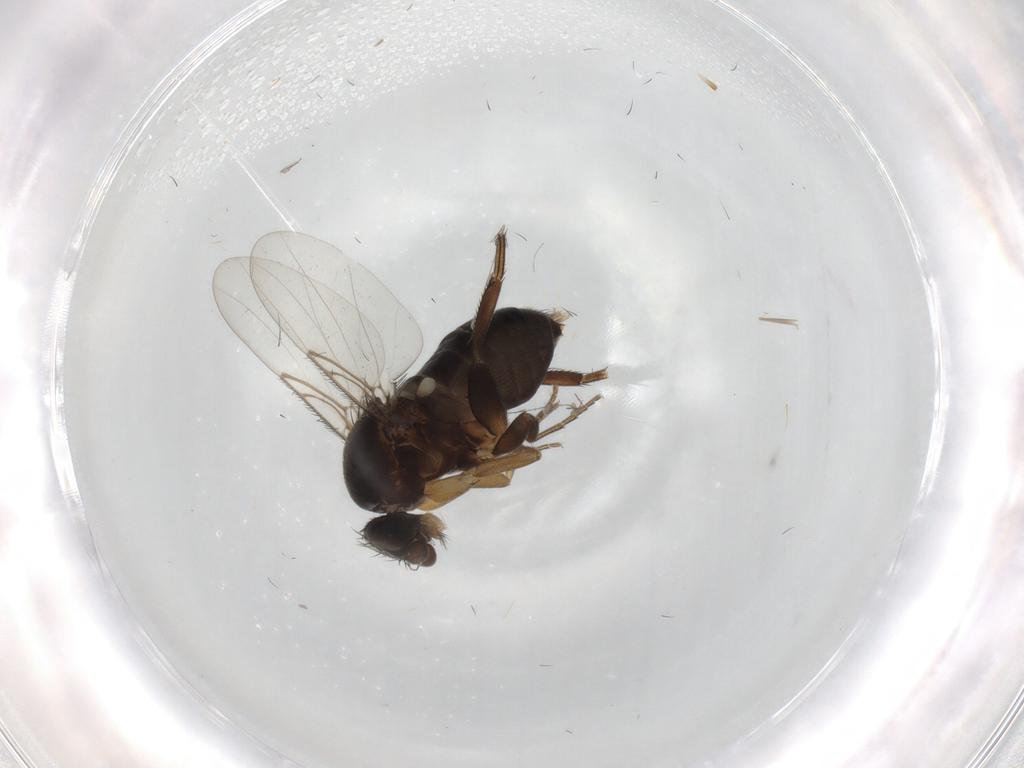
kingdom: Animalia
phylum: Arthropoda
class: Insecta
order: Diptera
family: Phoridae
